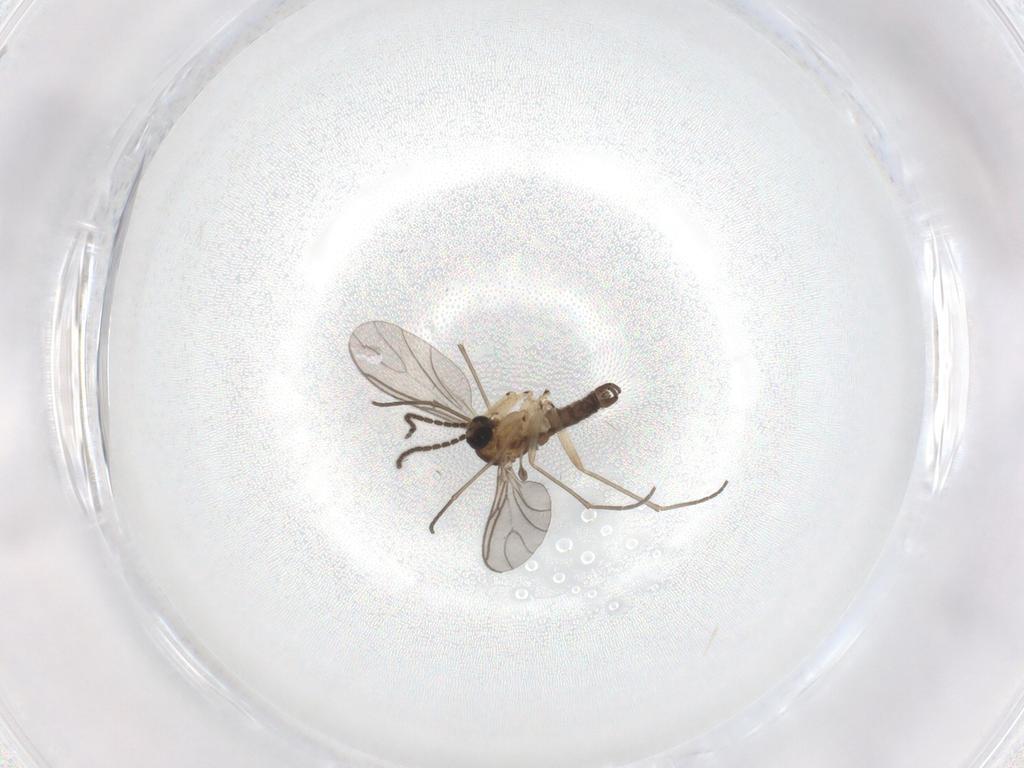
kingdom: Animalia
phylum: Arthropoda
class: Insecta
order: Diptera
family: Sciaridae
